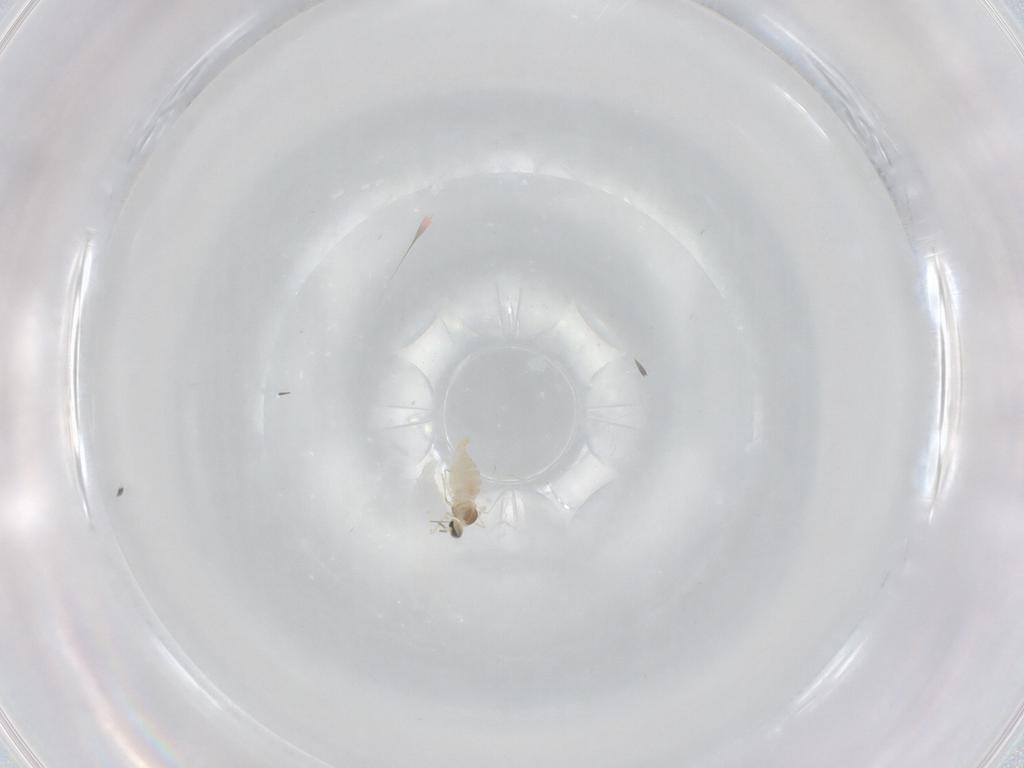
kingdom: Animalia
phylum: Arthropoda
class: Insecta
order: Diptera
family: Cecidomyiidae
